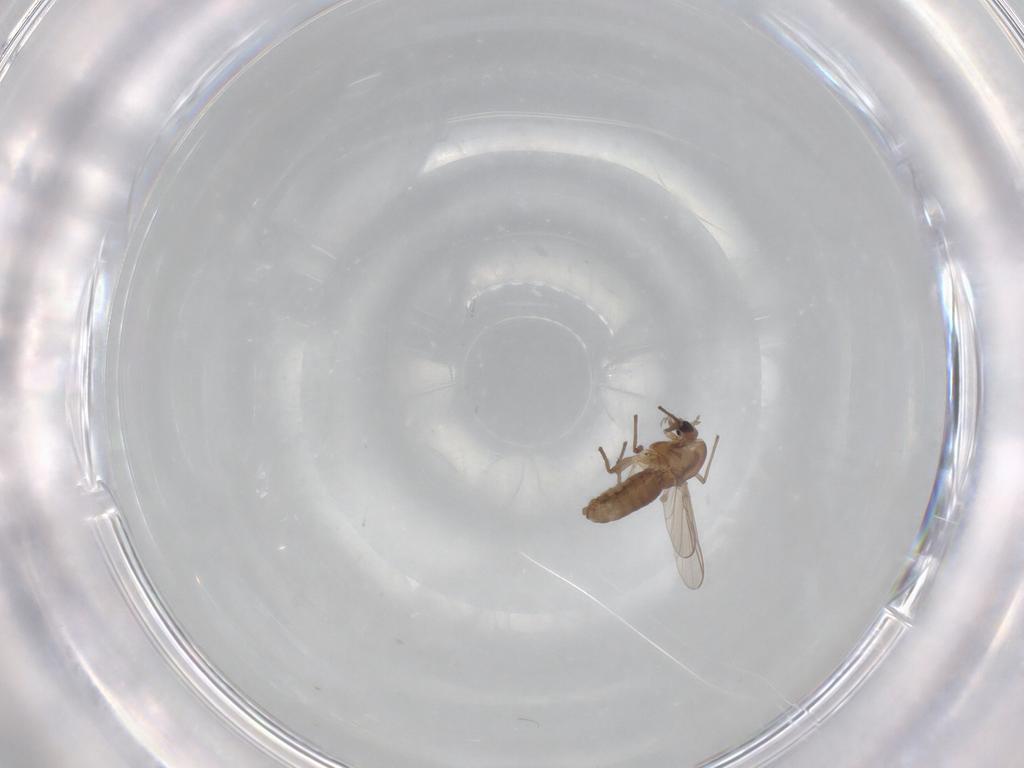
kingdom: Animalia
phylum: Arthropoda
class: Insecta
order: Diptera
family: Chironomidae
